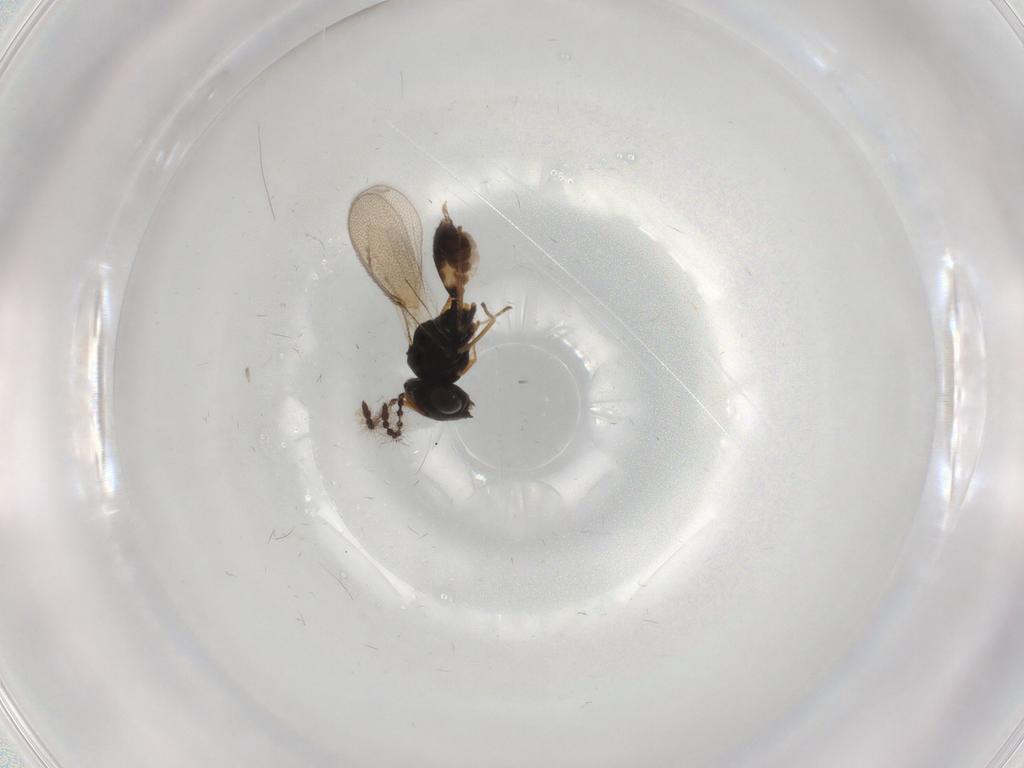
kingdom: Animalia
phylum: Arthropoda
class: Insecta
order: Hymenoptera
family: Pteromalidae
